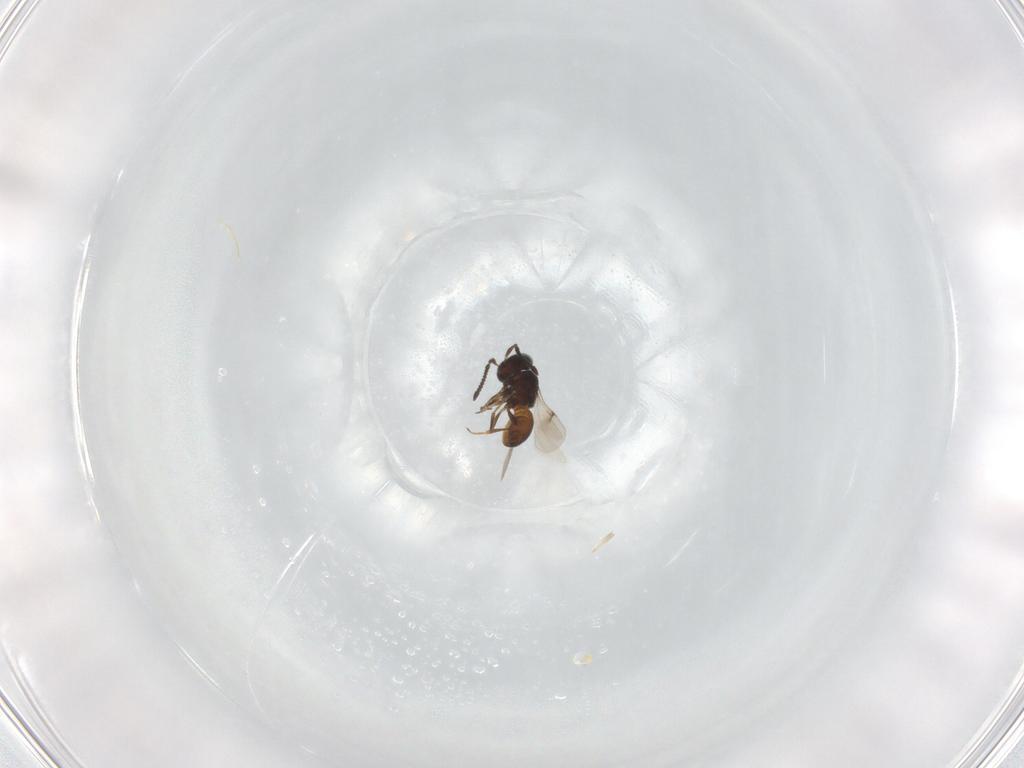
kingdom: Animalia
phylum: Arthropoda
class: Insecta
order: Hymenoptera
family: Scelionidae
